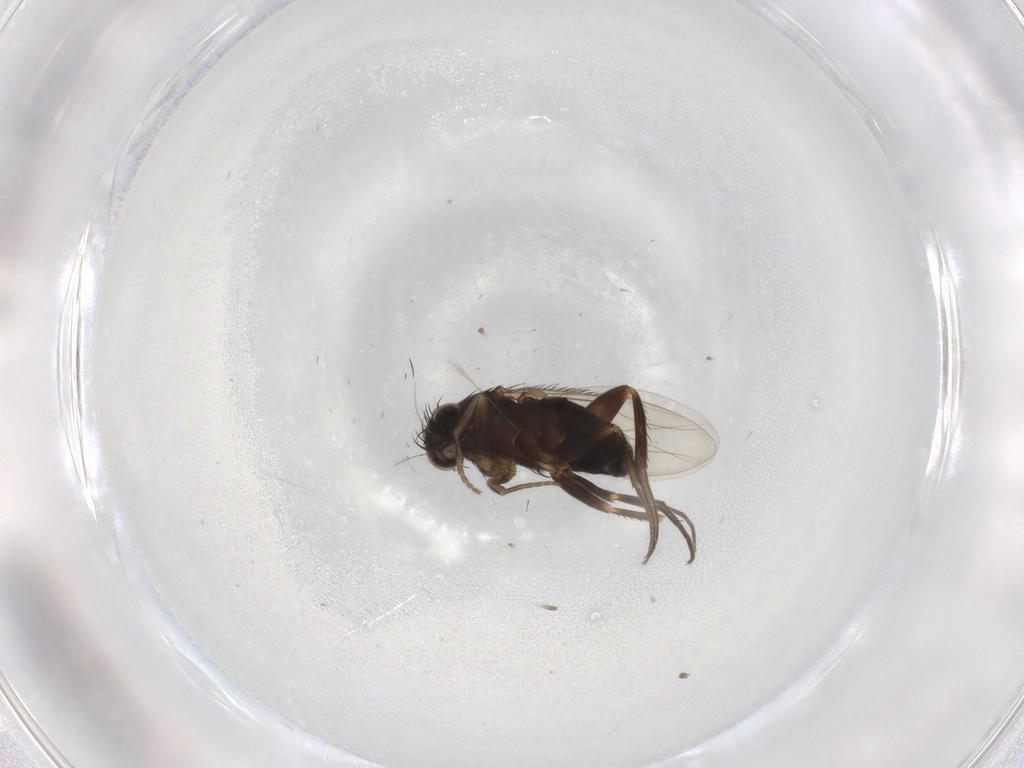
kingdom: Animalia
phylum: Arthropoda
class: Insecta
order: Diptera
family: Phoridae
